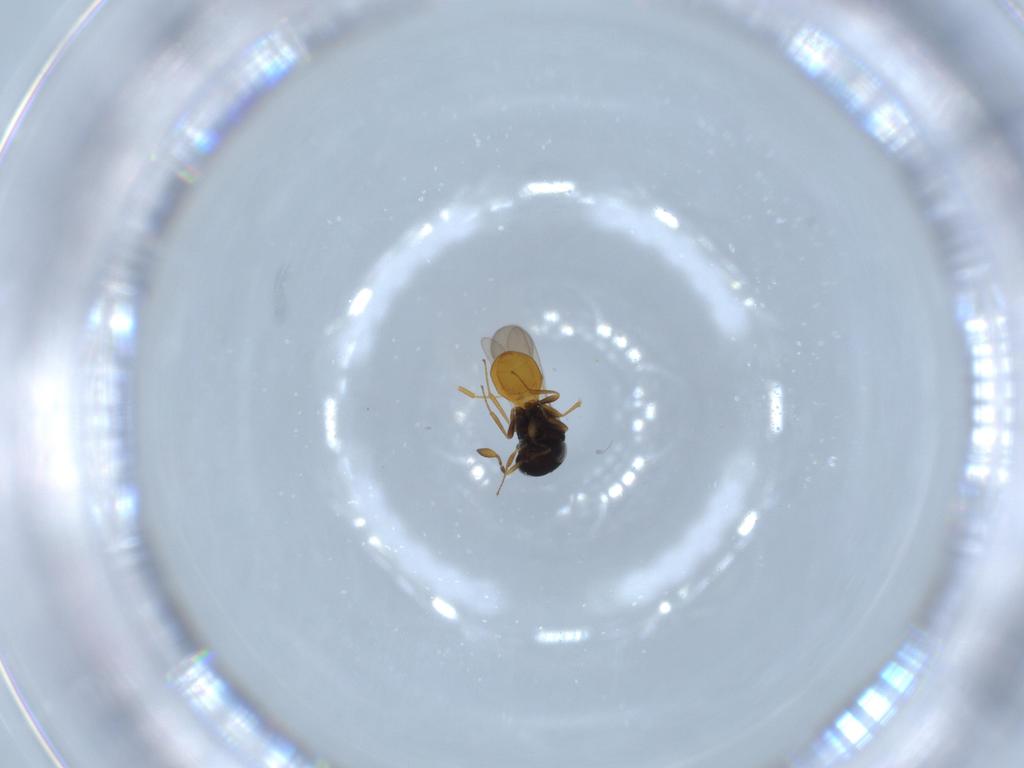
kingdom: Animalia
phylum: Arthropoda
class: Insecta
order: Hymenoptera
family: Scelionidae
